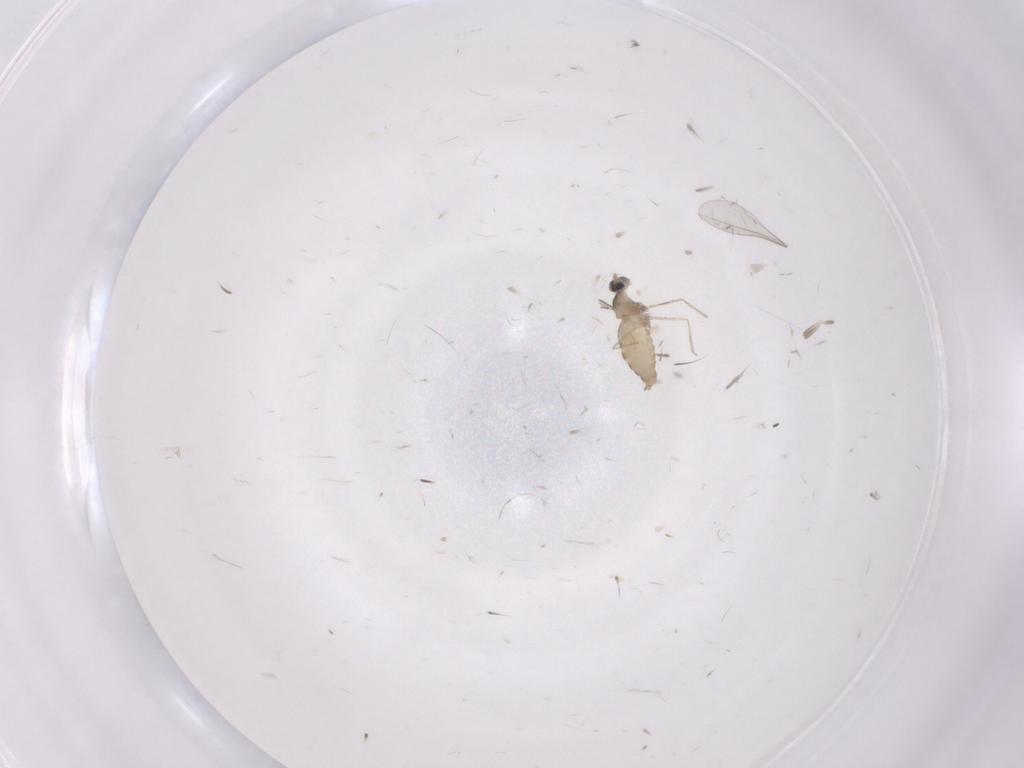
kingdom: Animalia
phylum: Arthropoda
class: Insecta
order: Diptera
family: Cecidomyiidae
